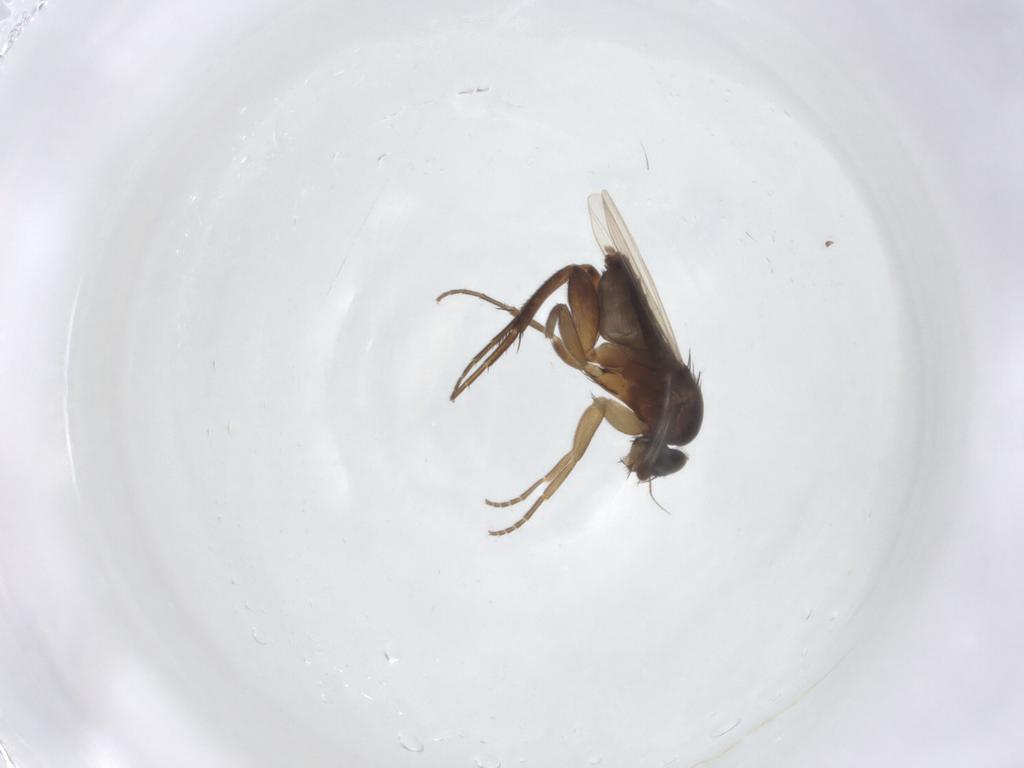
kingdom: Animalia
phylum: Arthropoda
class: Insecta
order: Diptera
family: Phoridae
